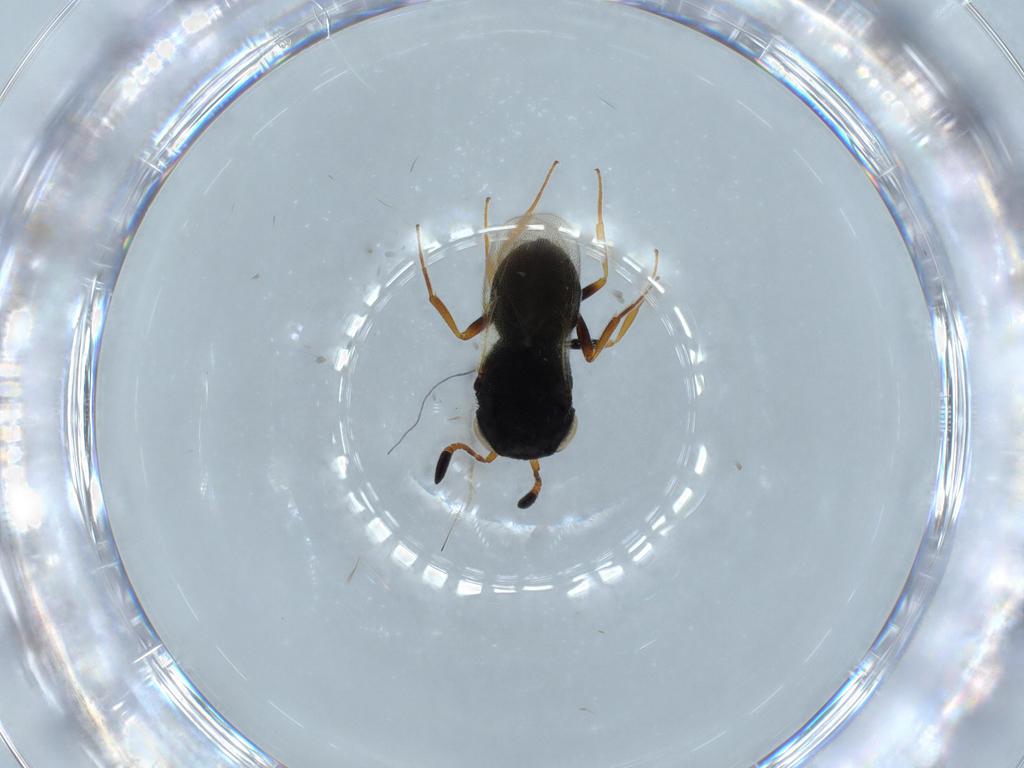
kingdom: Animalia
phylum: Arthropoda
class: Insecta
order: Hymenoptera
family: Scelionidae
